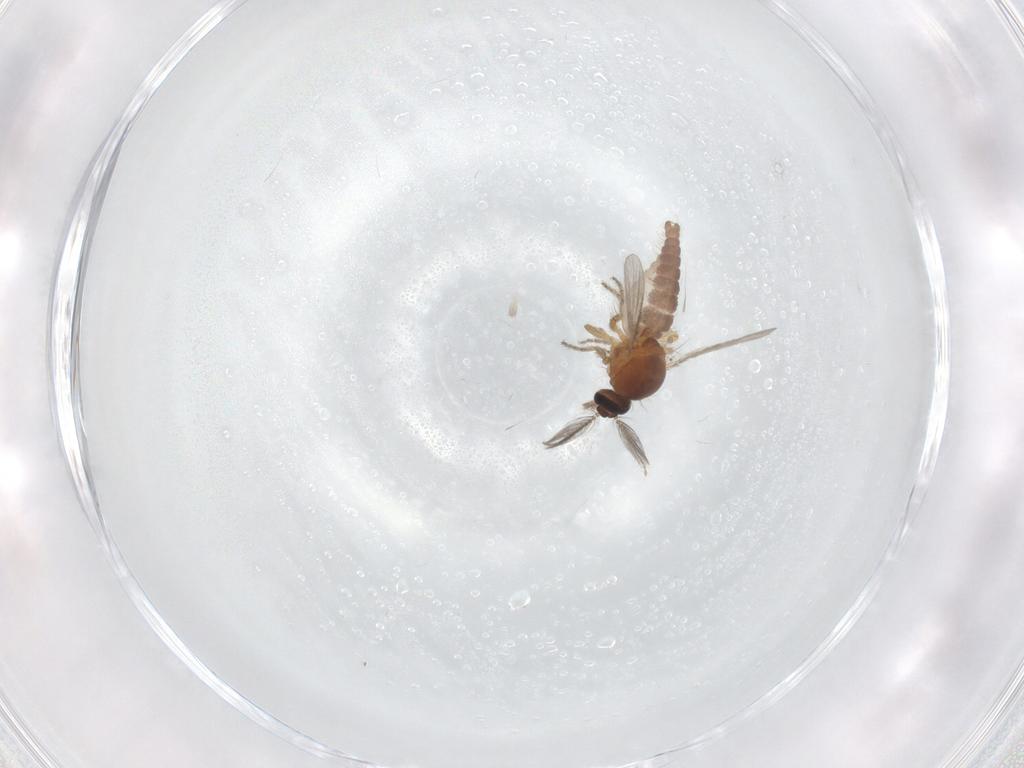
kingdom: Animalia
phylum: Arthropoda
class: Insecta
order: Diptera
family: Ceratopogonidae
